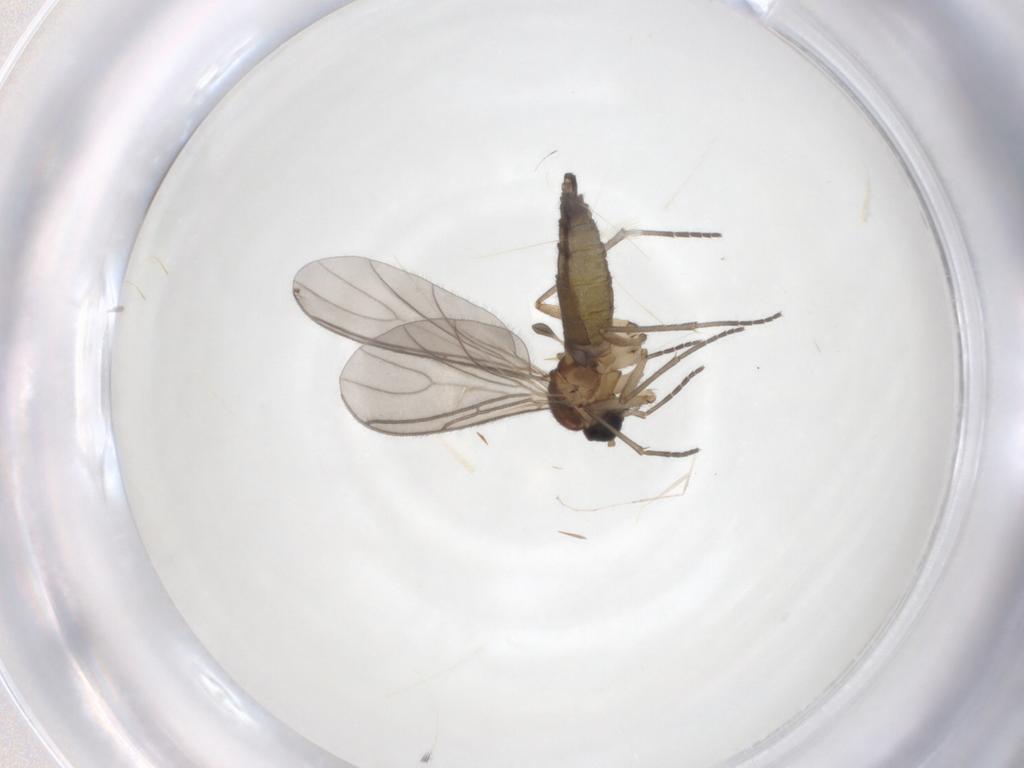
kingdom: Animalia
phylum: Arthropoda
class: Insecta
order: Diptera
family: Sciaridae
